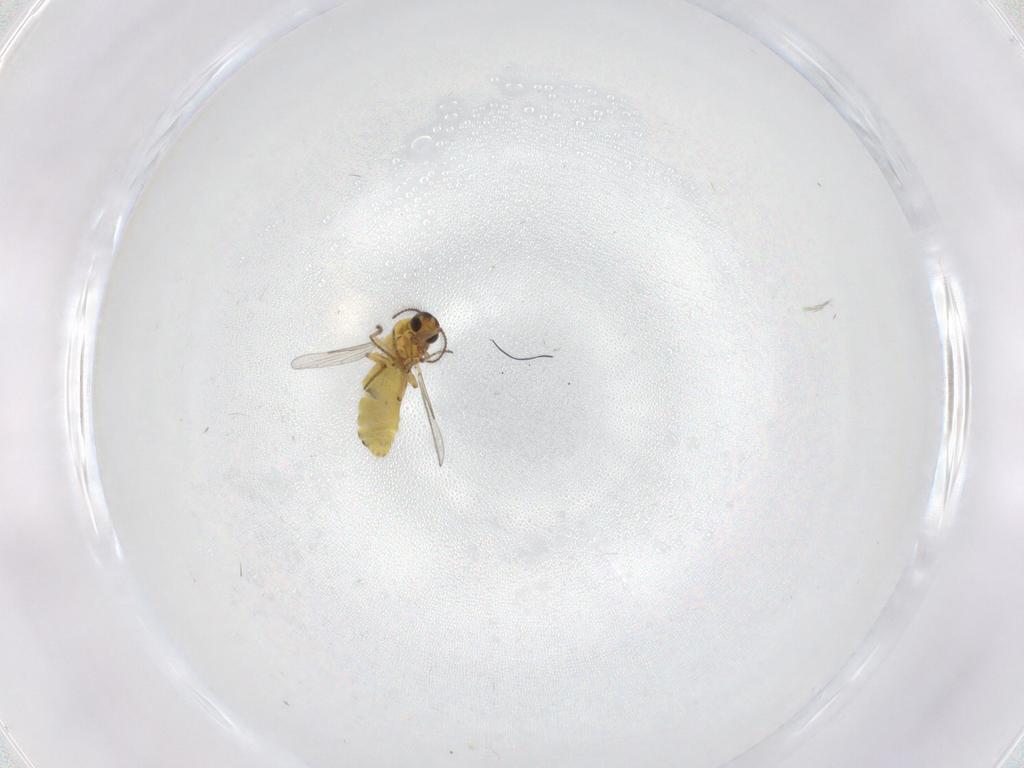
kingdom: Animalia
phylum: Arthropoda
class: Insecta
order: Diptera
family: Ceratopogonidae
